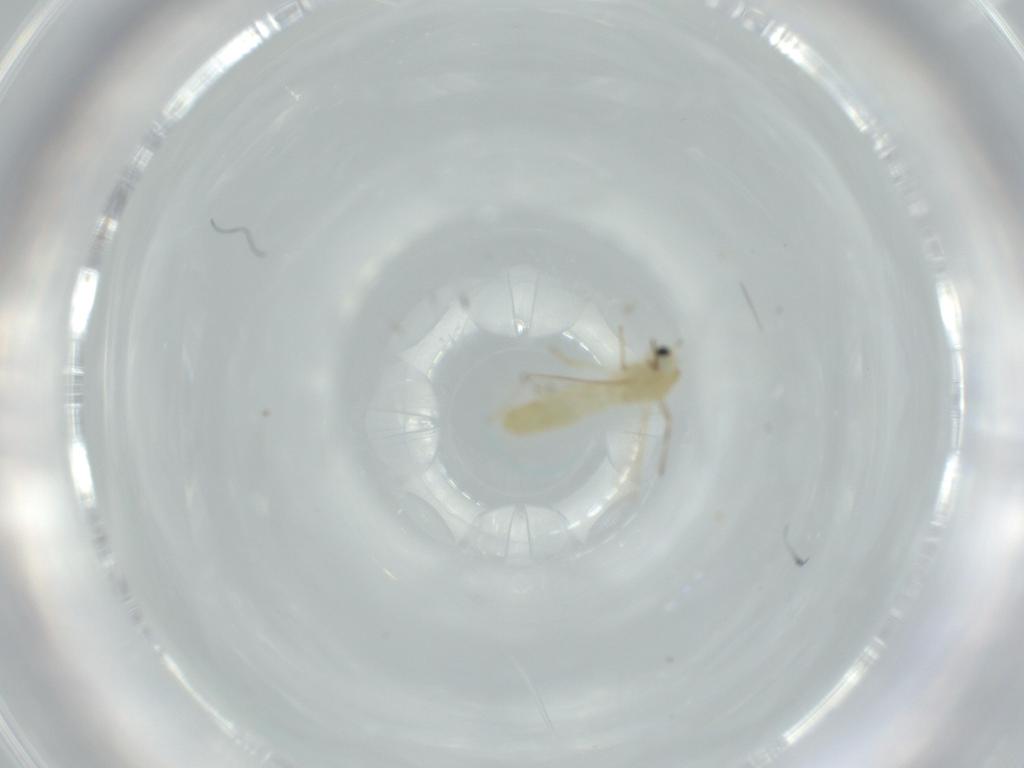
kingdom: Animalia
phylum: Arthropoda
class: Insecta
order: Diptera
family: Chironomidae
